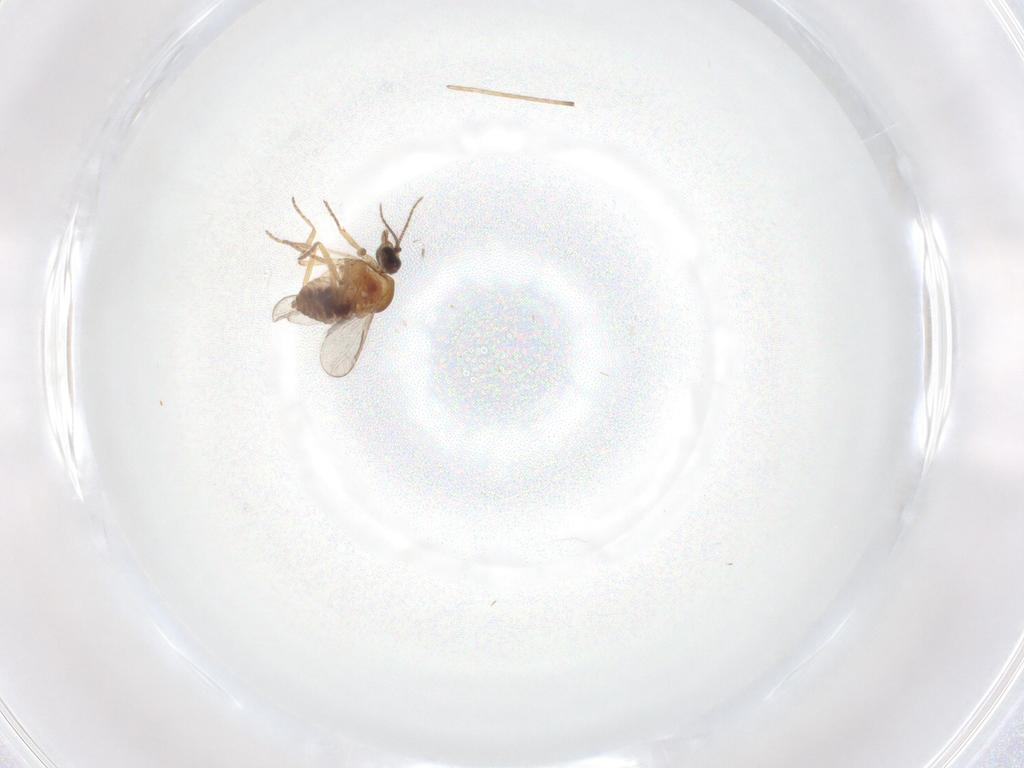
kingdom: Animalia
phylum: Arthropoda
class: Insecta
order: Diptera
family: Chironomidae
